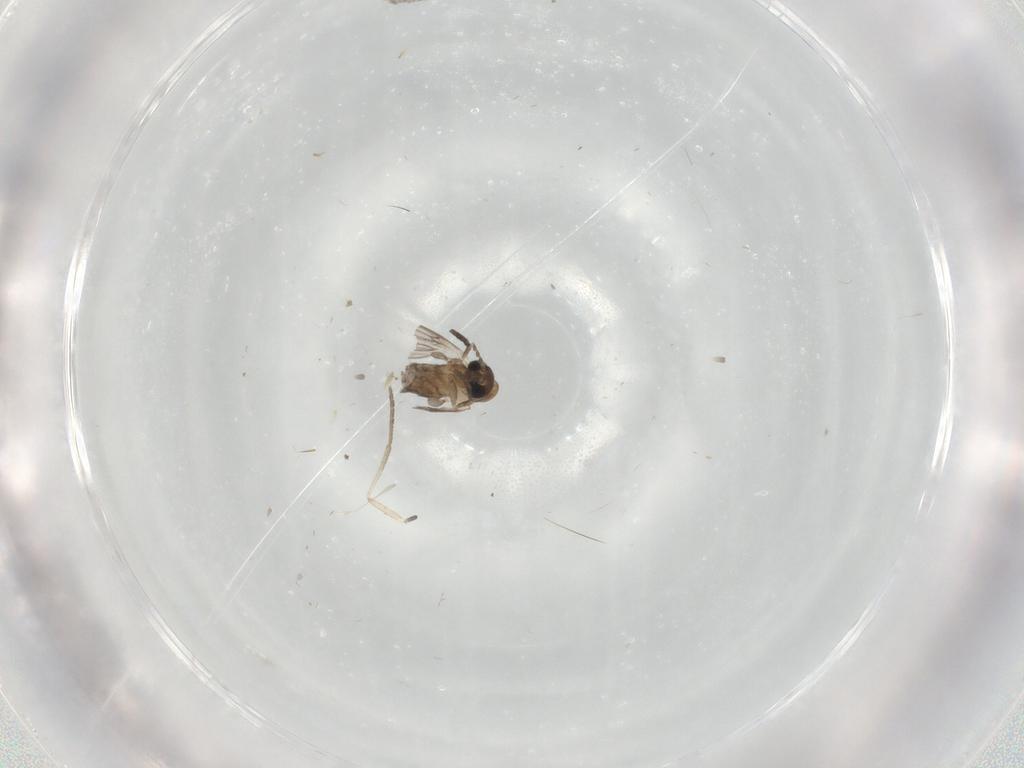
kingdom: Animalia
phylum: Arthropoda
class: Insecta
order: Diptera
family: Psychodidae
